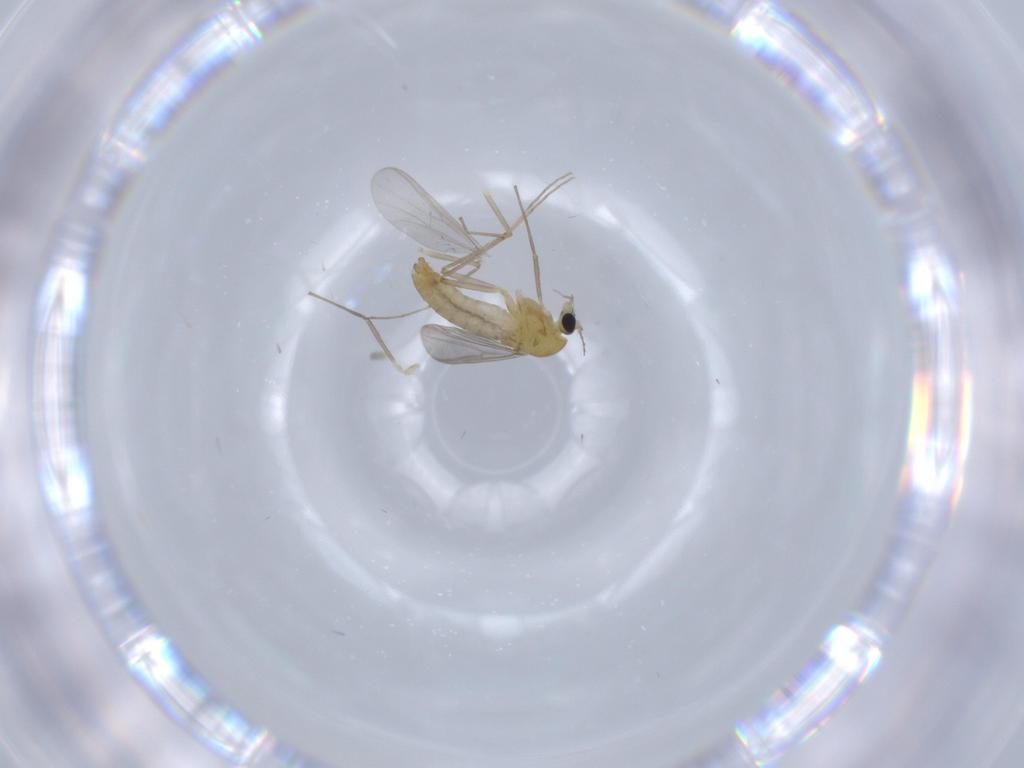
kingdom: Animalia
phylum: Arthropoda
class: Insecta
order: Diptera
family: Chironomidae
